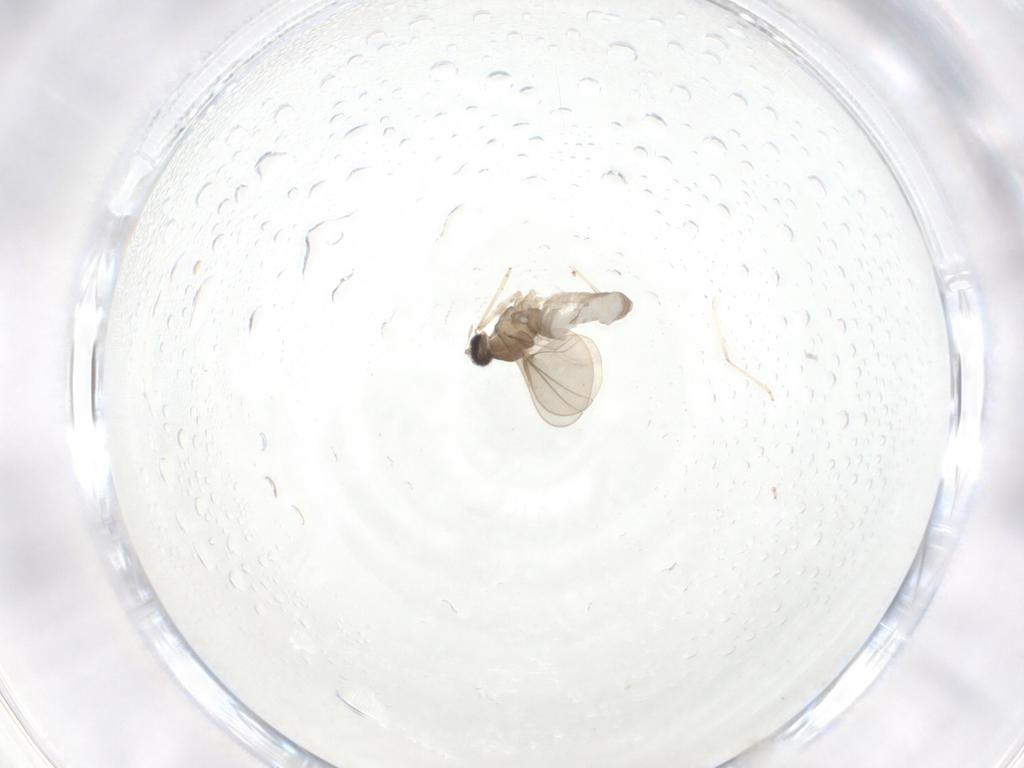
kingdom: Animalia
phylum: Arthropoda
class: Insecta
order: Diptera
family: Cecidomyiidae
